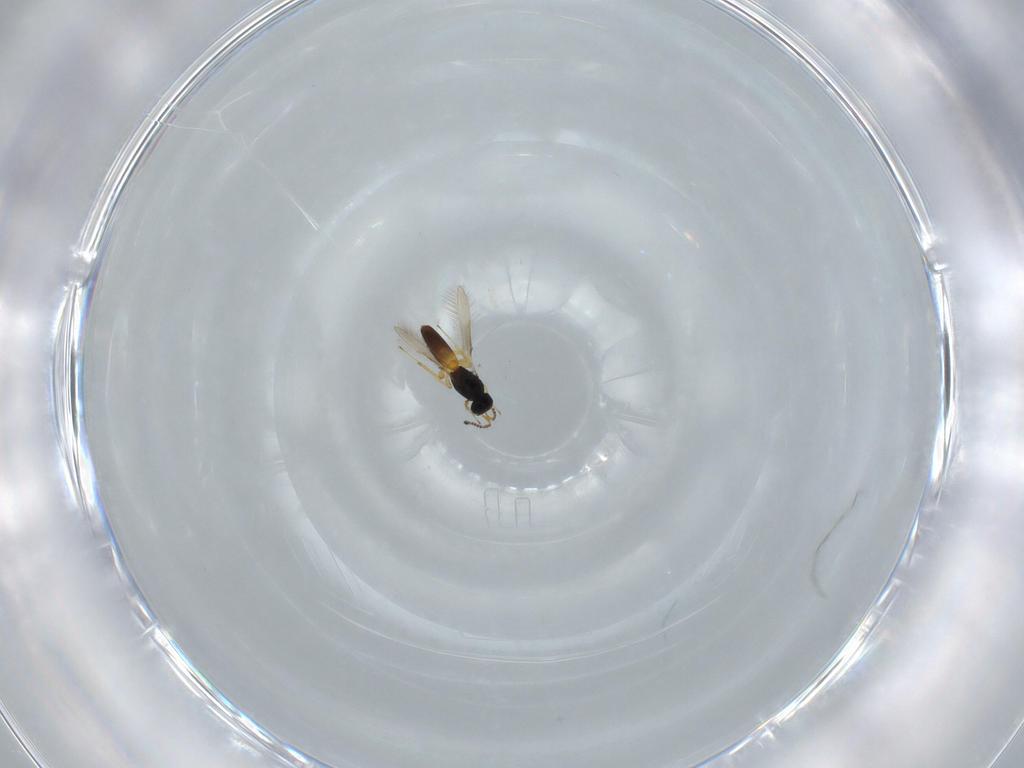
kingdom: Animalia
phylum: Arthropoda
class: Insecta
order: Hymenoptera
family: Scelionidae
